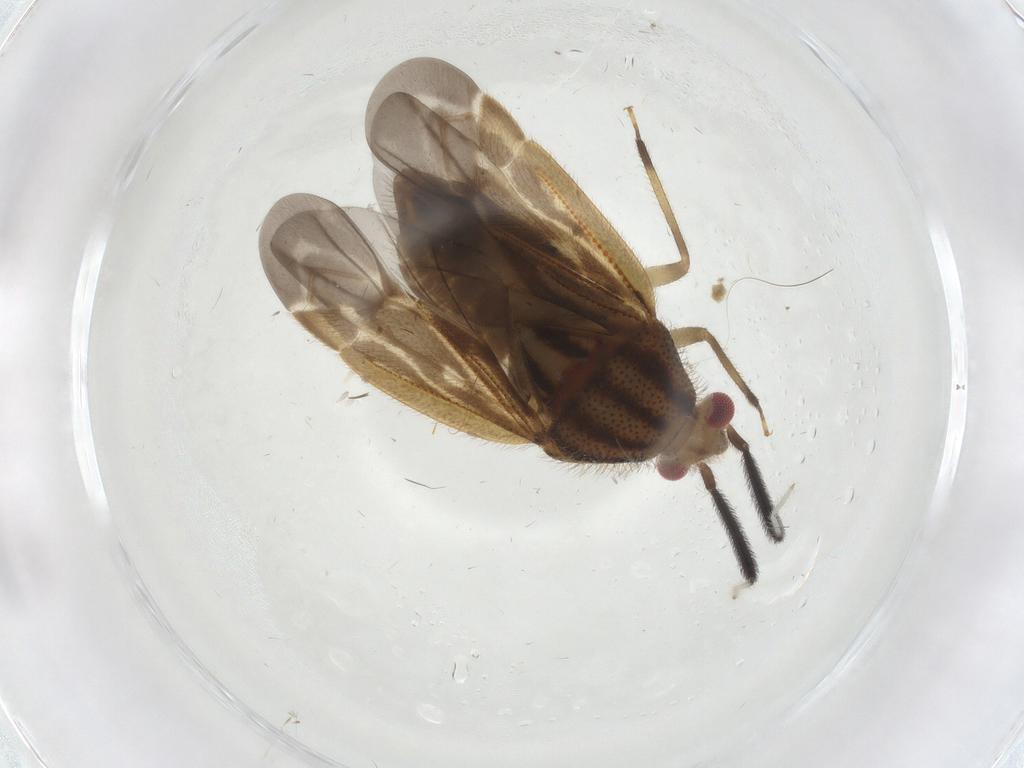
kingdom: Animalia
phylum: Arthropoda
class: Insecta
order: Hemiptera
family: Miridae
